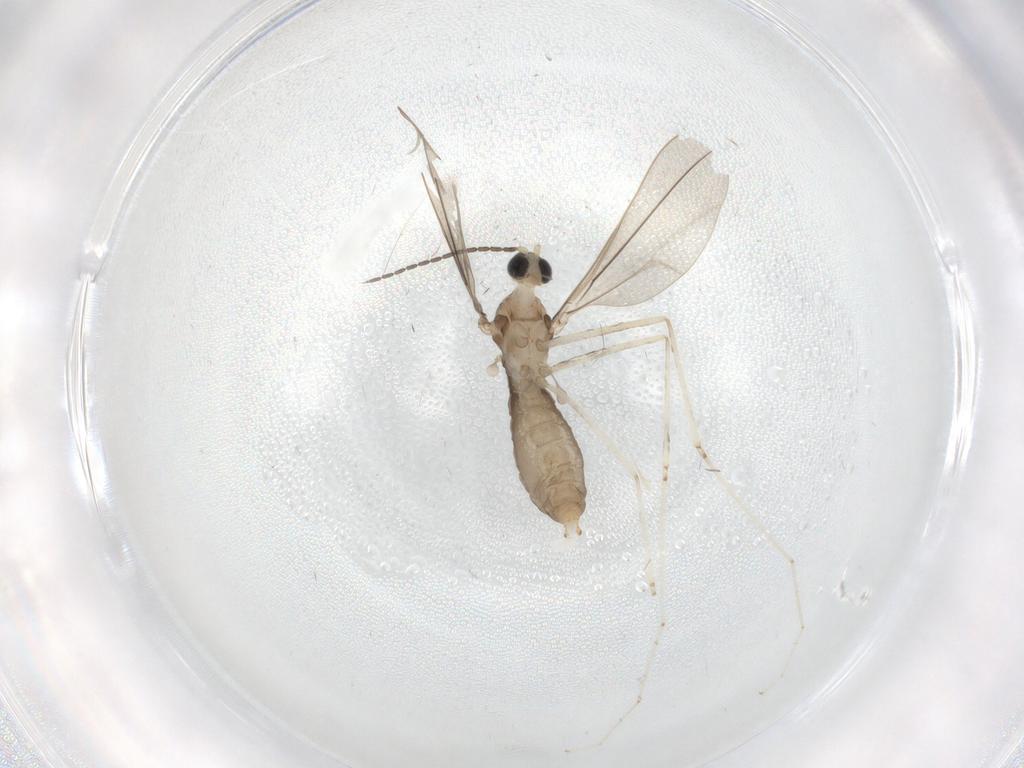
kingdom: Animalia
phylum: Arthropoda
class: Insecta
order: Diptera
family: Cecidomyiidae
